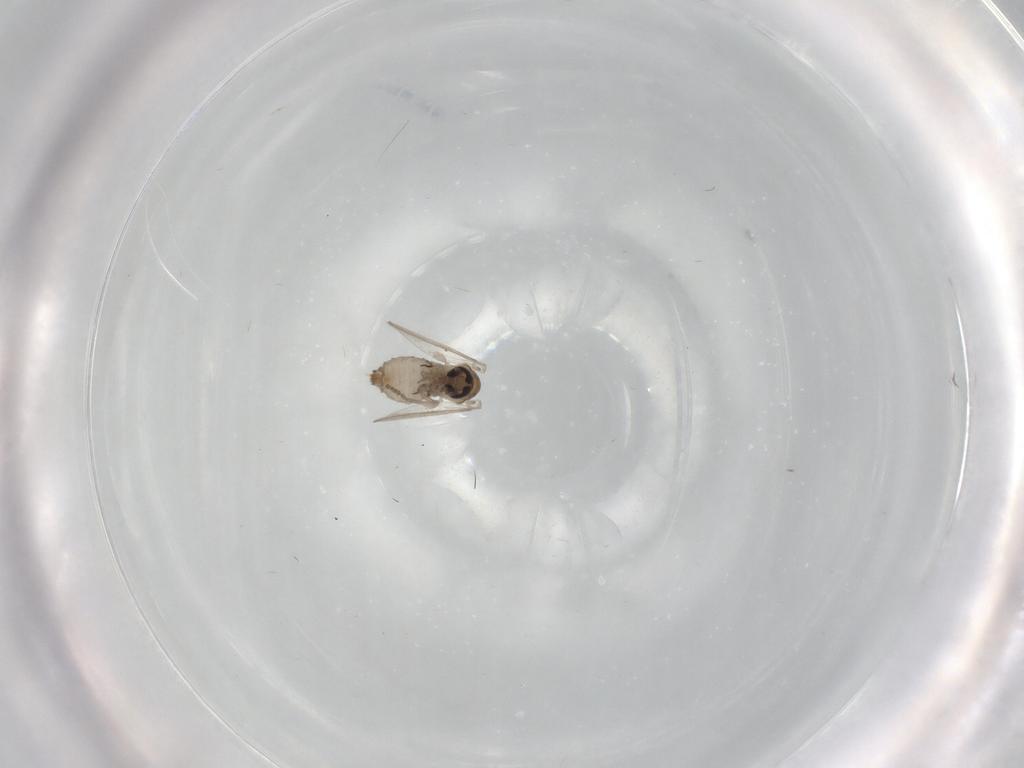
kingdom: Animalia
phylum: Arthropoda
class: Insecta
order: Diptera
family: Psychodidae
